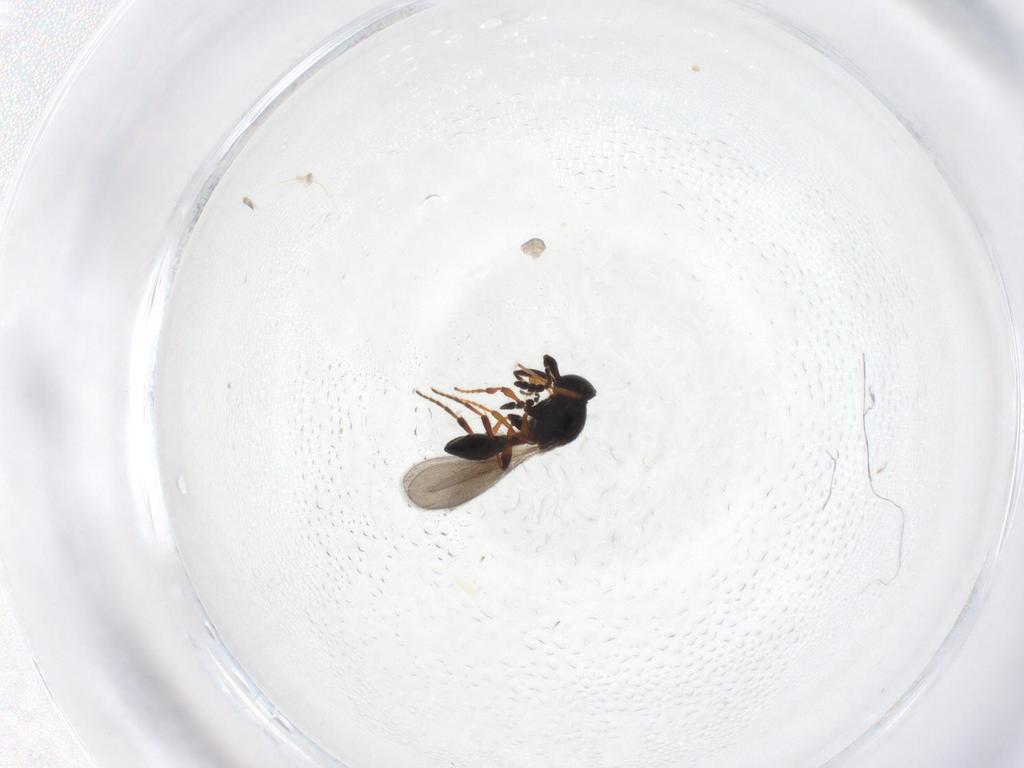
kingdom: Animalia
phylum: Arthropoda
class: Insecta
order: Hymenoptera
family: Platygastridae
